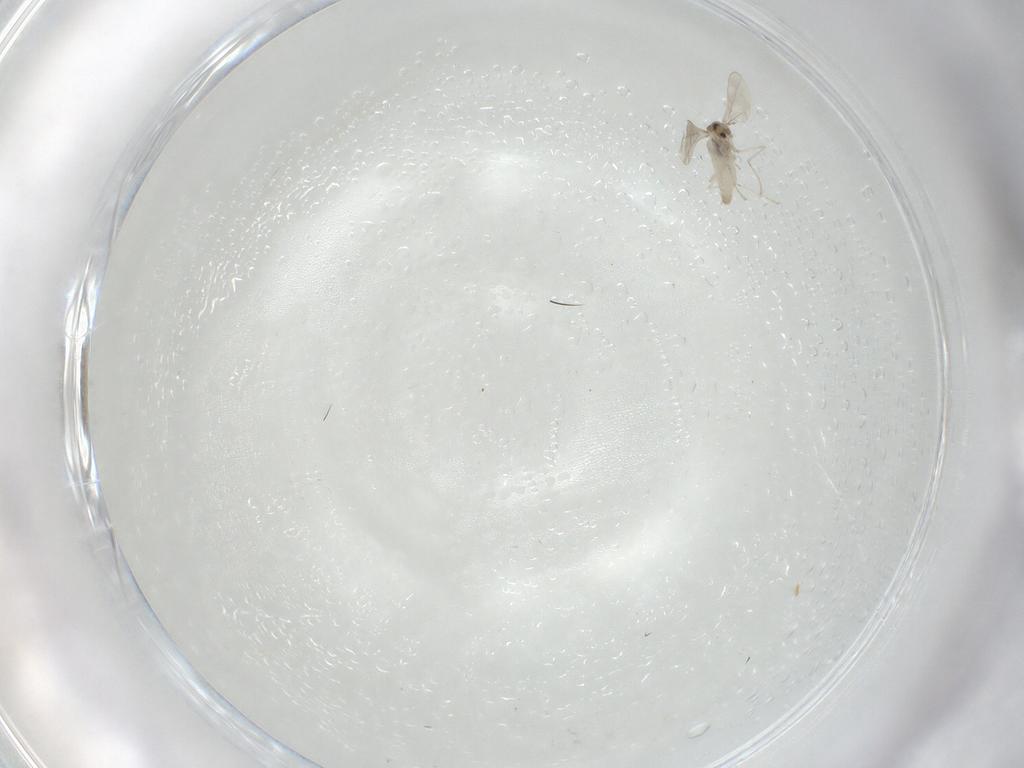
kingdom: Animalia
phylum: Arthropoda
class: Insecta
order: Diptera
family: Cecidomyiidae
